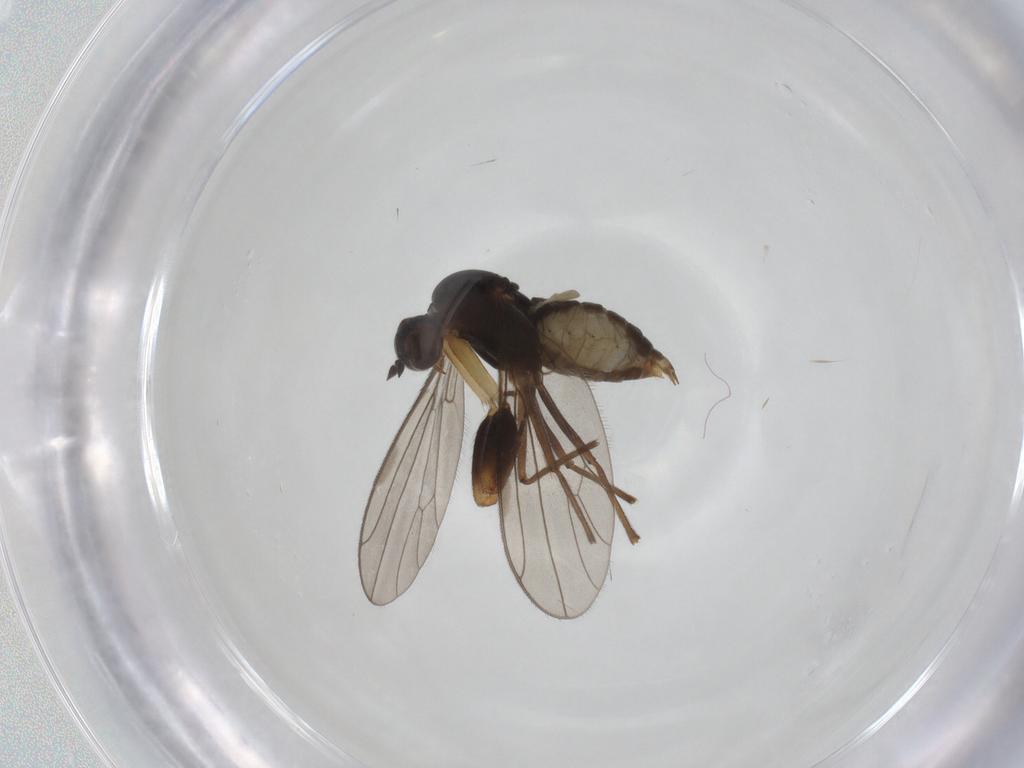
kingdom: Animalia
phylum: Arthropoda
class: Insecta
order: Diptera
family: Empididae
